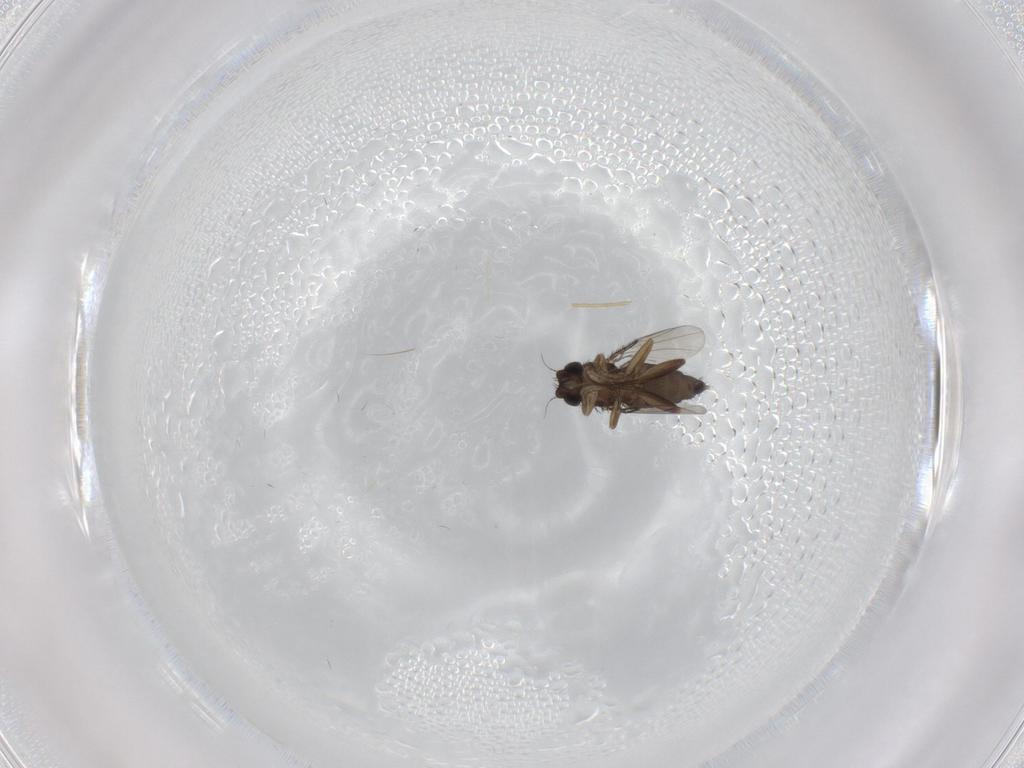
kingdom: Animalia
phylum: Arthropoda
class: Insecta
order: Diptera
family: Phoridae
